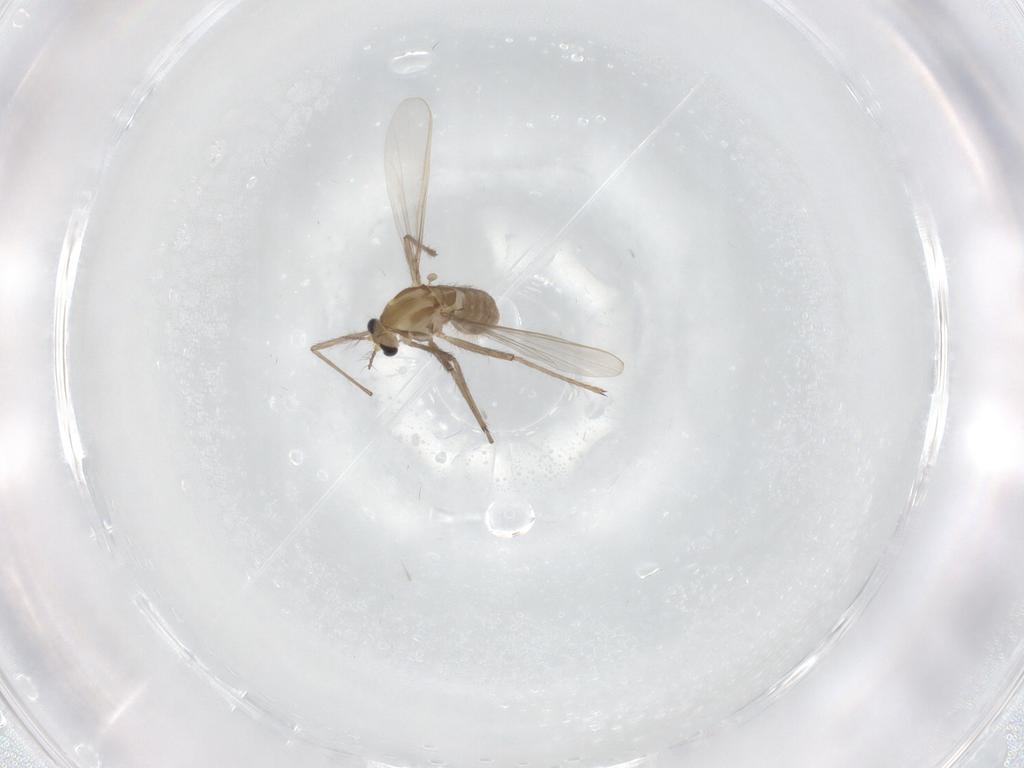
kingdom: Animalia
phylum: Arthropoda
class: Insecta
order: Diptera
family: Chironomidae
